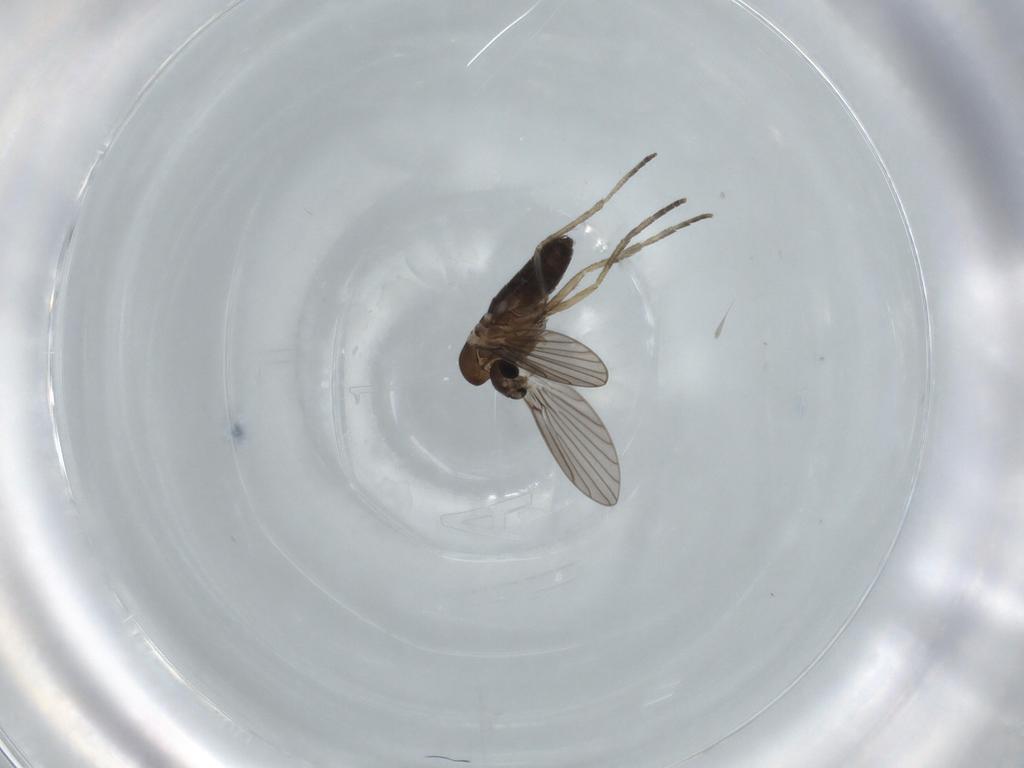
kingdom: Animalia
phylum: Arthropoda
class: Insecta
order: Diptera
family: Psychodidae
